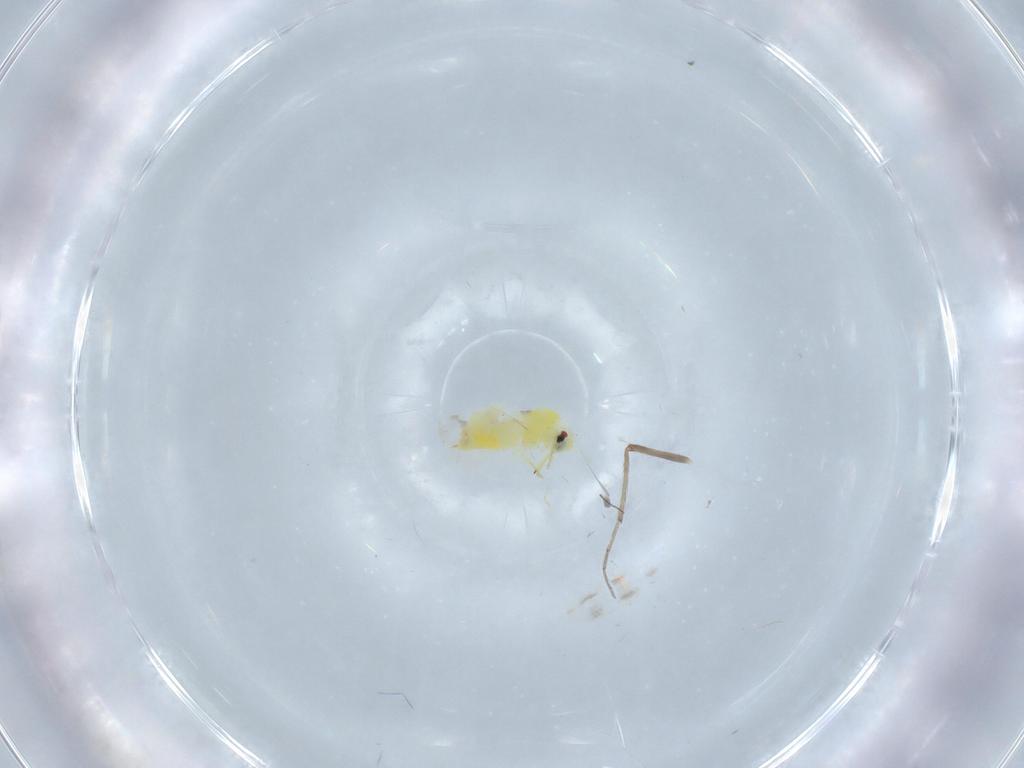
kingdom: Animalia
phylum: Arthropoda
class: Insecta
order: Hemiptera
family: Aleyrodidae
